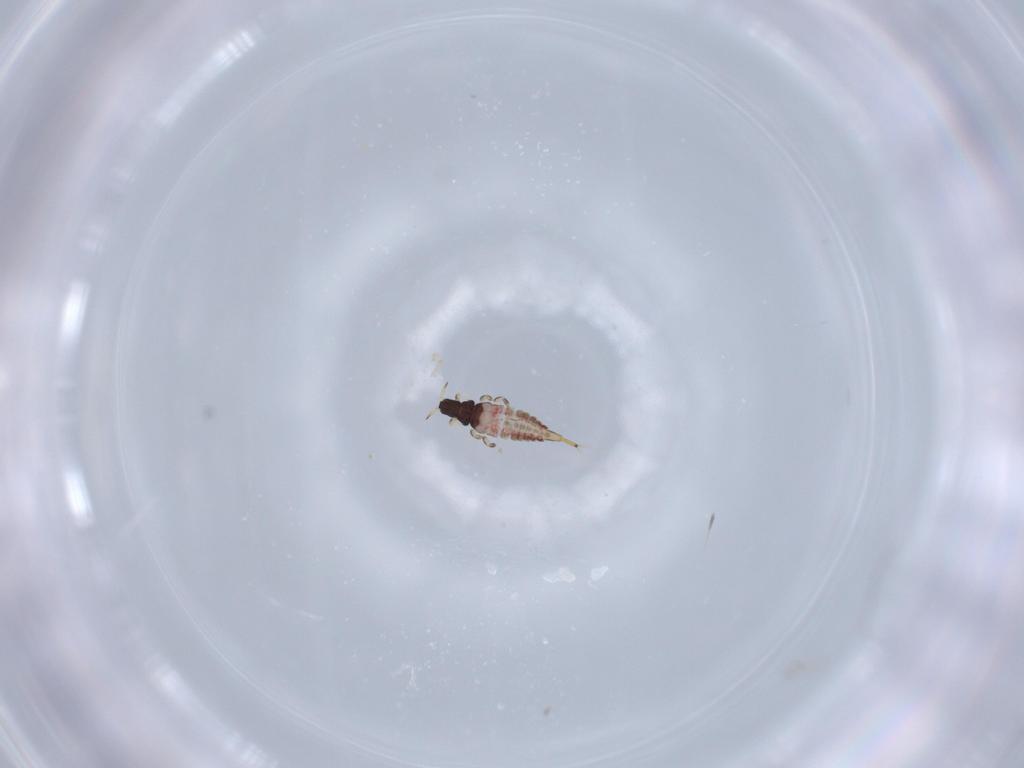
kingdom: Animalia
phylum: Arthropoda
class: Insecta
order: Thysanoptera
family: Phlaeothripidae
